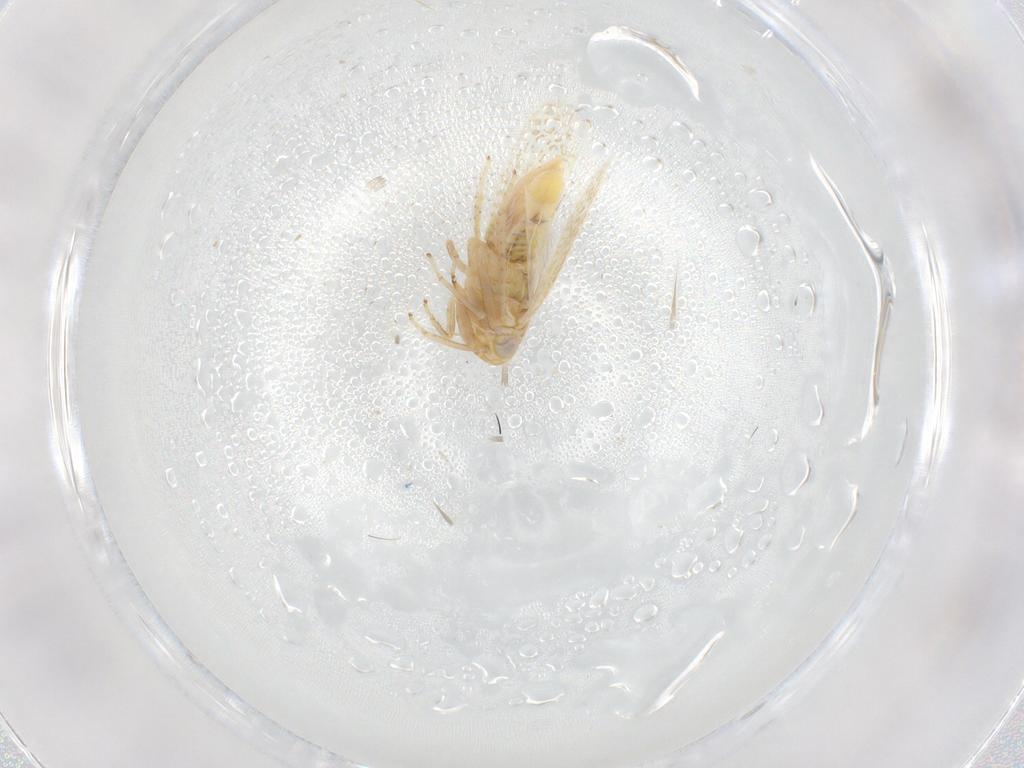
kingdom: Animalia
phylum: Arthropoda
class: Insecta
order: Hemiptera
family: Cicadellidae
